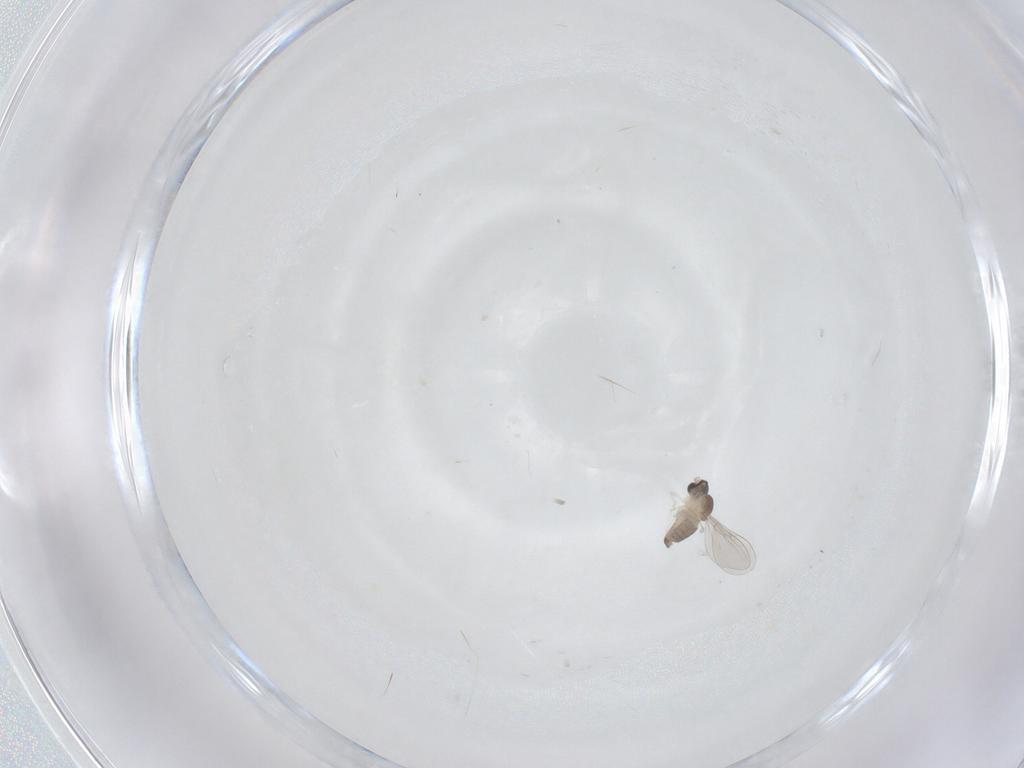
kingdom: Animalia
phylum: Arthropoda
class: Insecta
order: Diptera
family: Cecidomyiidae
